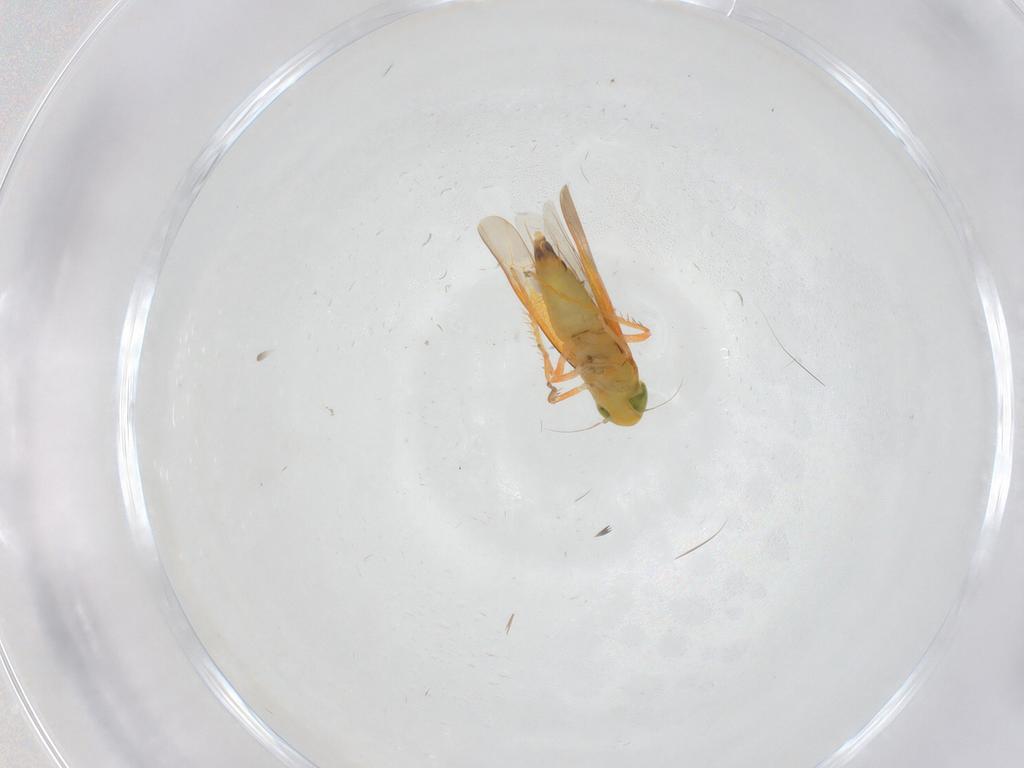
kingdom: Animalia
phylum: Arthropoda
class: Insecta
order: Hemiptera
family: Cicadellidae
